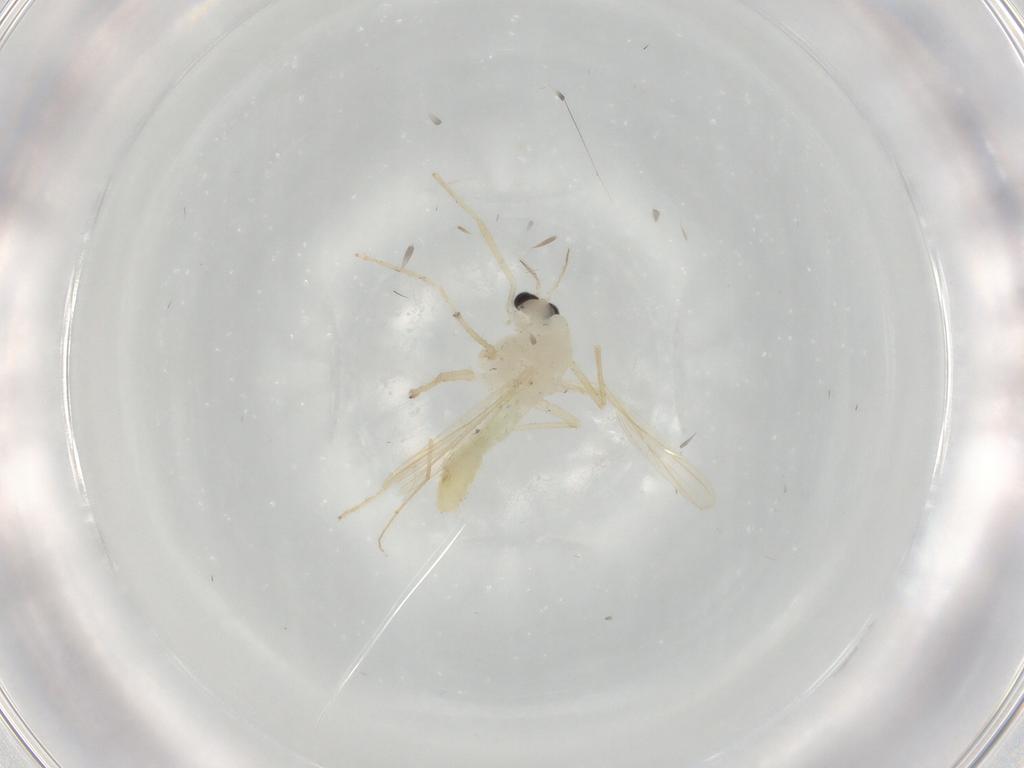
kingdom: Animalia
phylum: Arthropoda
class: Insecta
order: Diptera
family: Chironomidae
